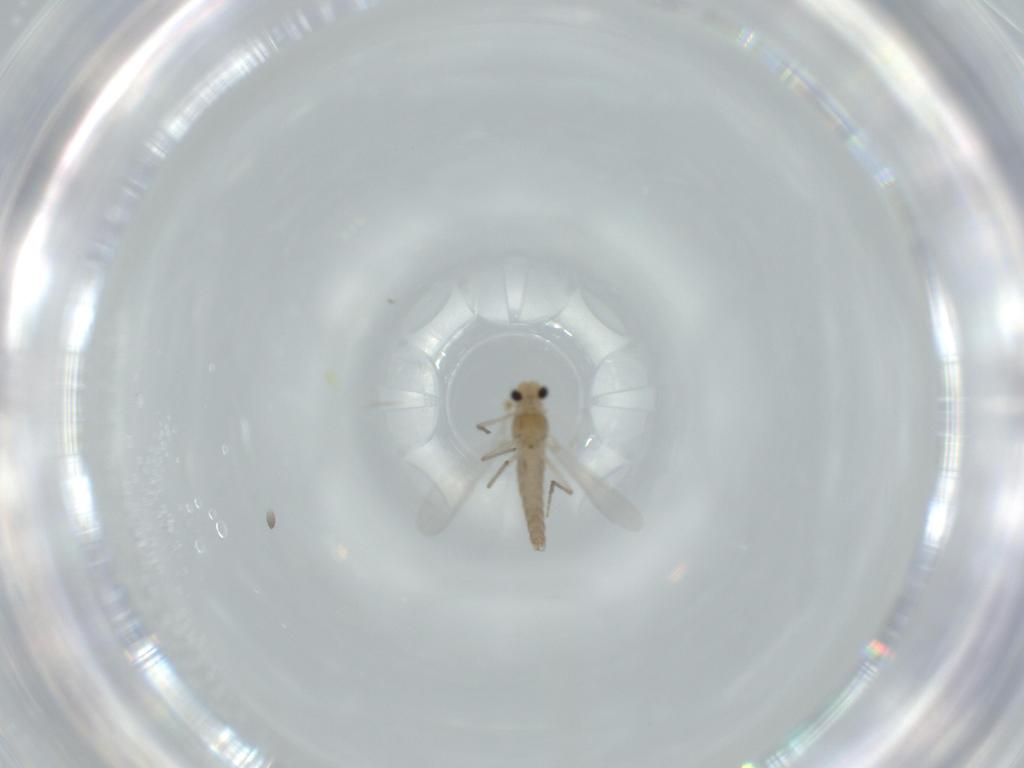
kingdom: Animalia
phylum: Arthropoda
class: Insecta
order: Diptera
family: Chironomidae
